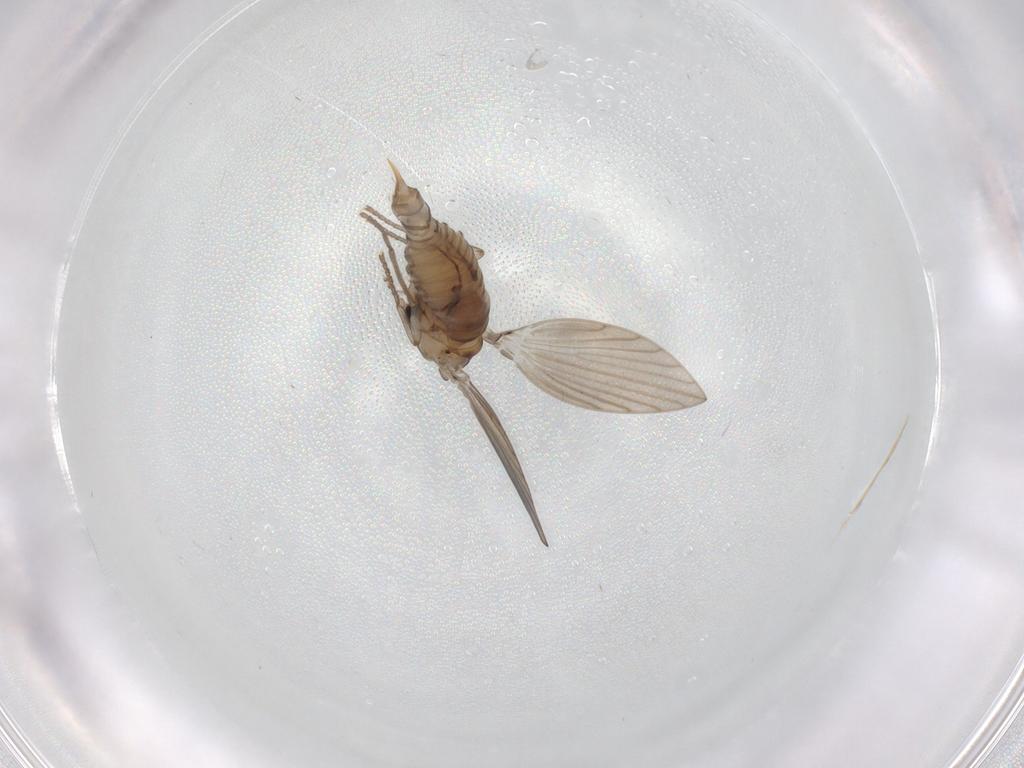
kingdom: Animalia
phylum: Arthropoda
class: Insecta
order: Diptera
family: Psychodidae
